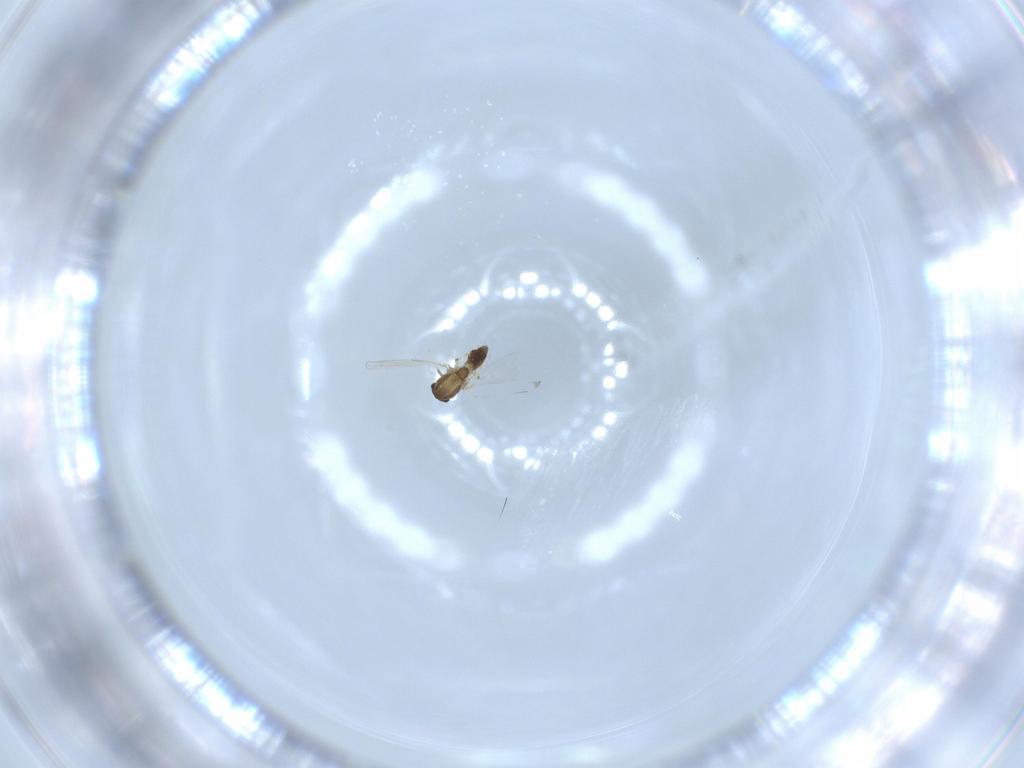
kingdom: Animalia
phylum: Arthropoda
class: Insecta
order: Diptera
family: Chironomidae
